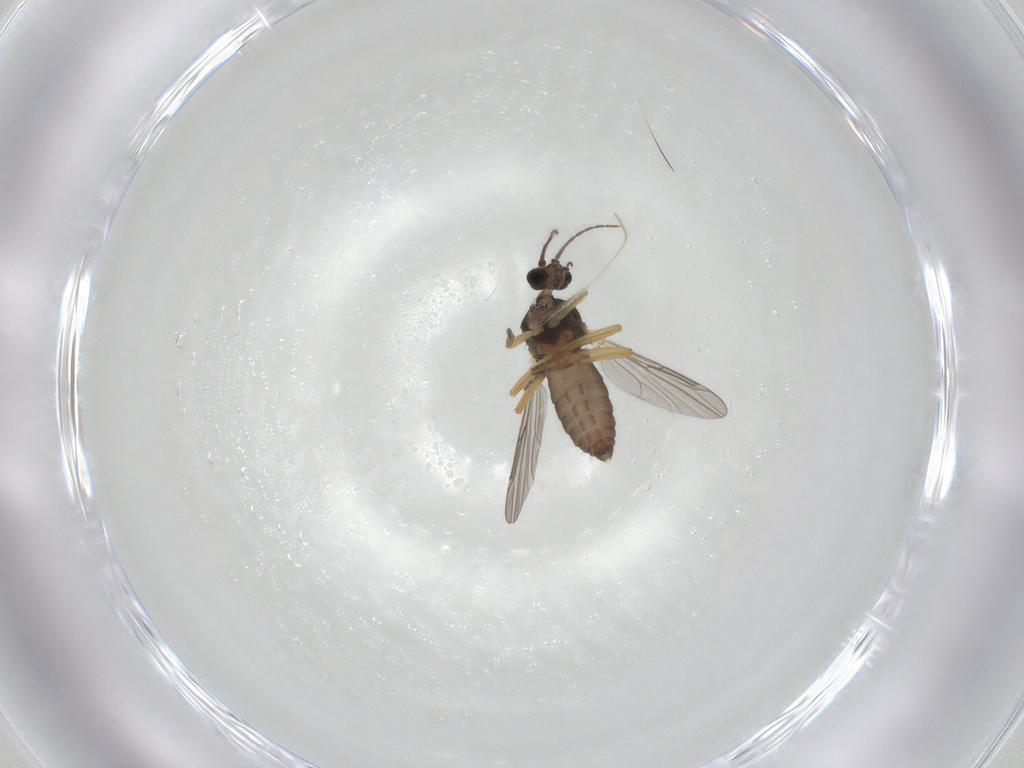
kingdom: Animalia
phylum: Arthropoda
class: Insecta
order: Diptera
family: Ceratopogonidae
